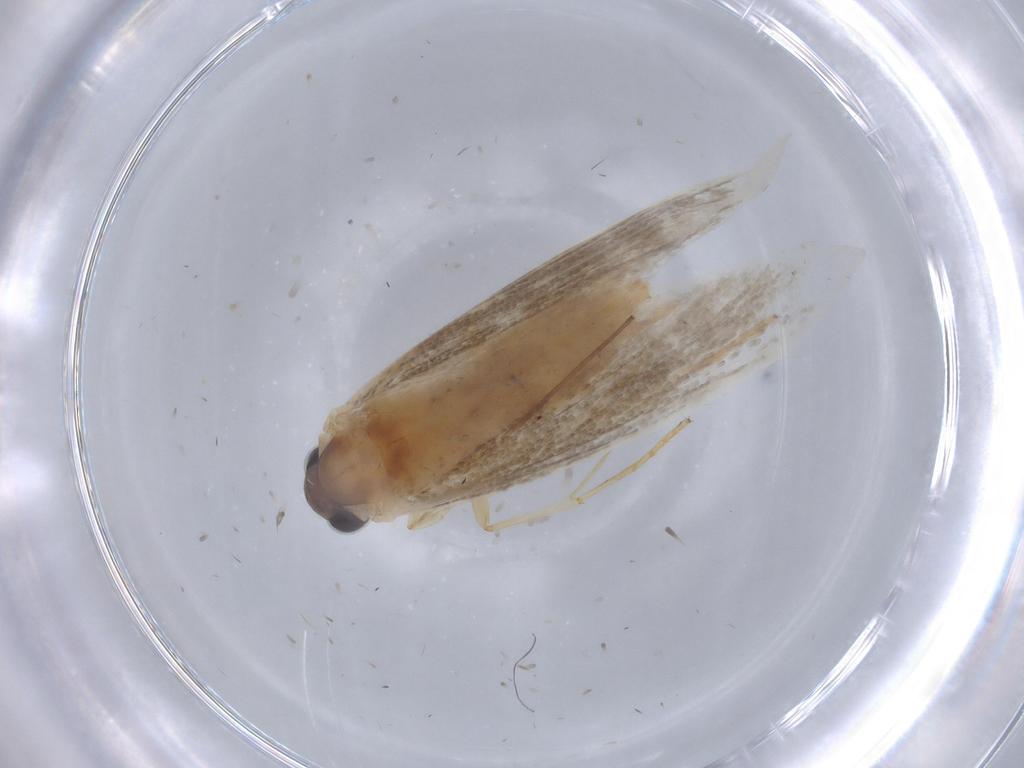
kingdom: Animalia
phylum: Arthropoda
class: Insecta
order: Lepidoptera
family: Cosmopterigidae
